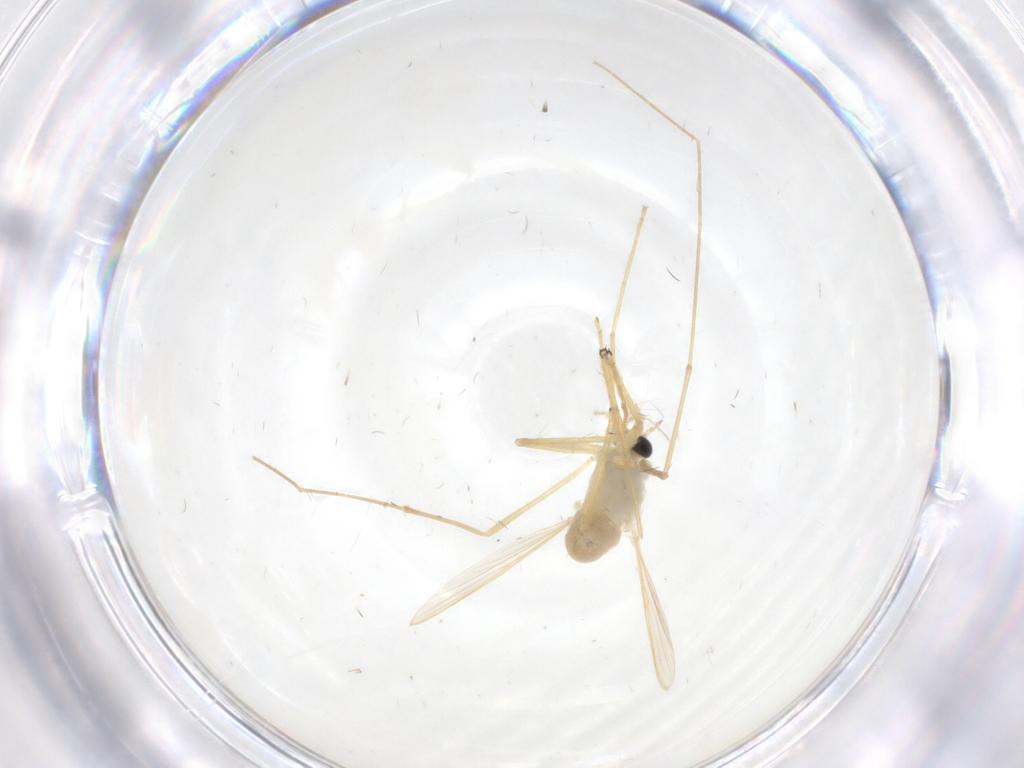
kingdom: Animalia
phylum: Arthropoda
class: Insecta
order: Diptera
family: Chironomidae
